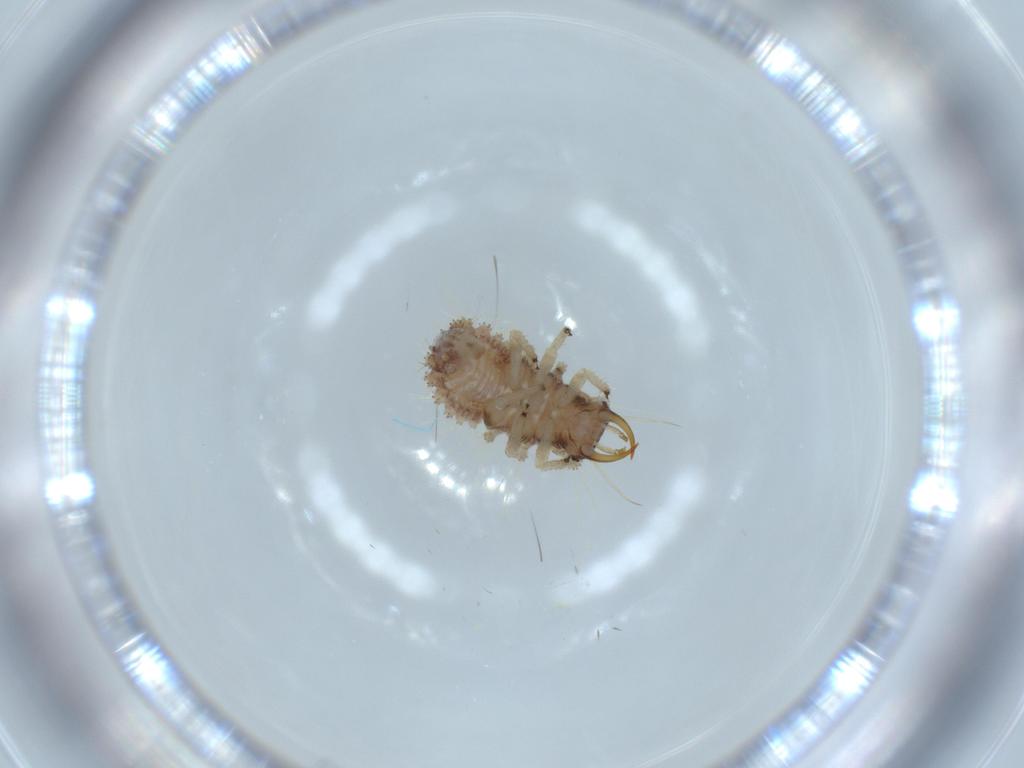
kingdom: Animalia
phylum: Arthropoda
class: Insecta
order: Neuroptera
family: Chrysopidae
